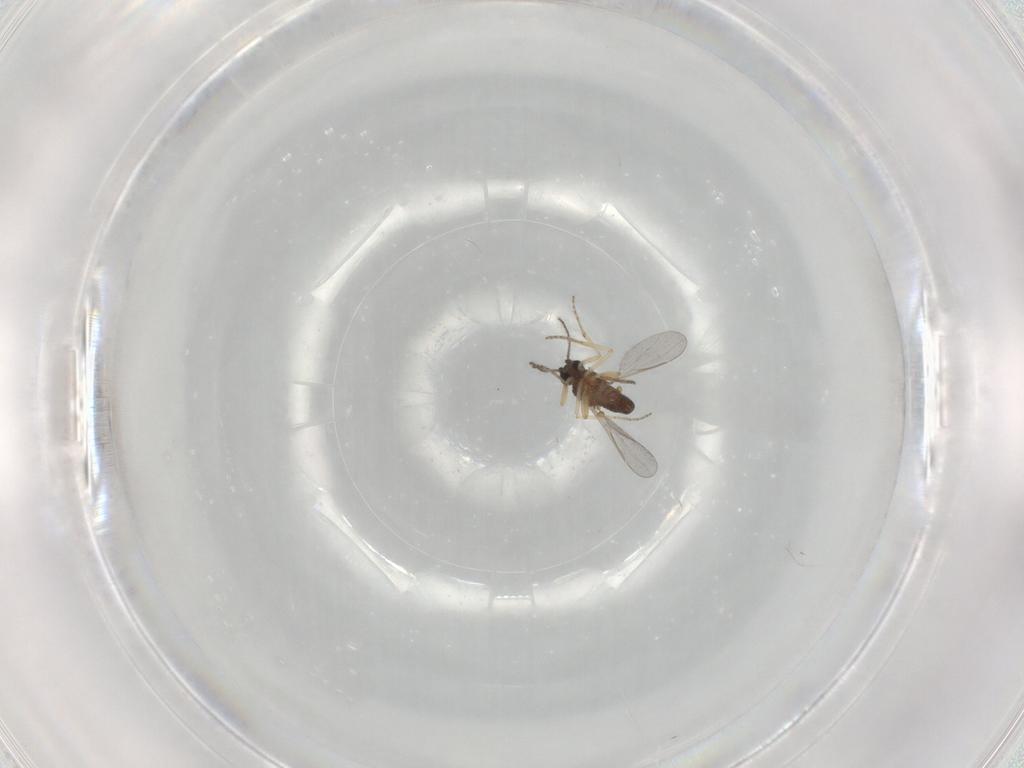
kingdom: Animalia
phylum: Arthropoda
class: Insecta
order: Diptera
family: Ceratopogonidae
